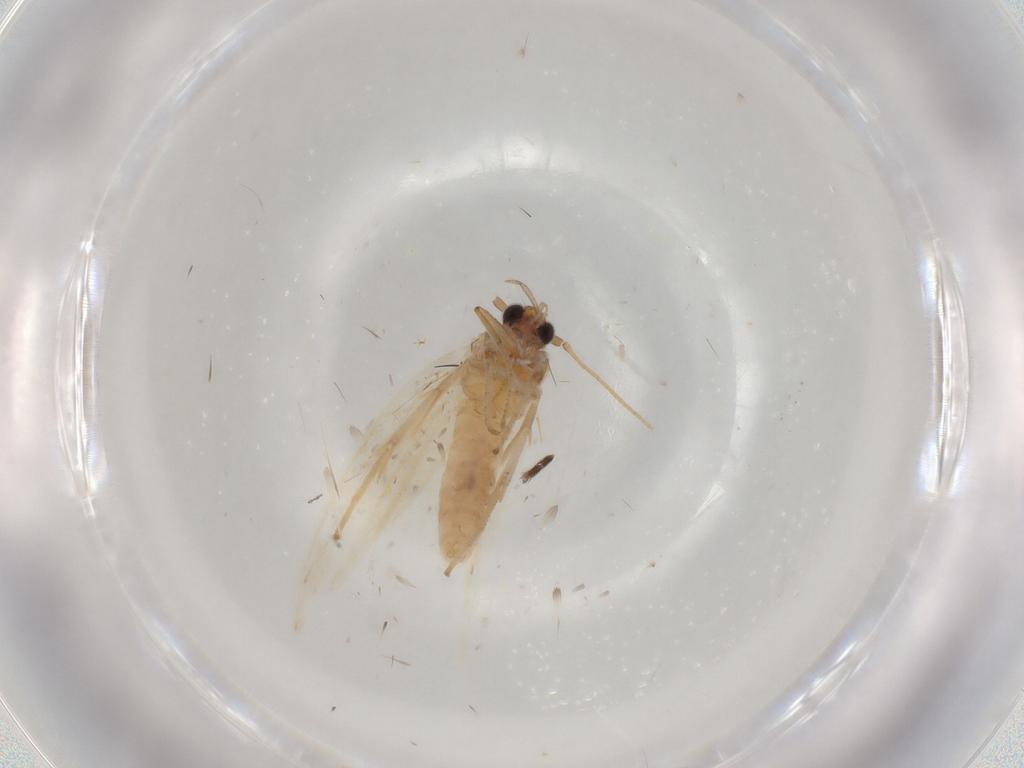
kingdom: Animalia
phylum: Arthropoda
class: Insecta
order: Lepidoptera
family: Gelechiidae
